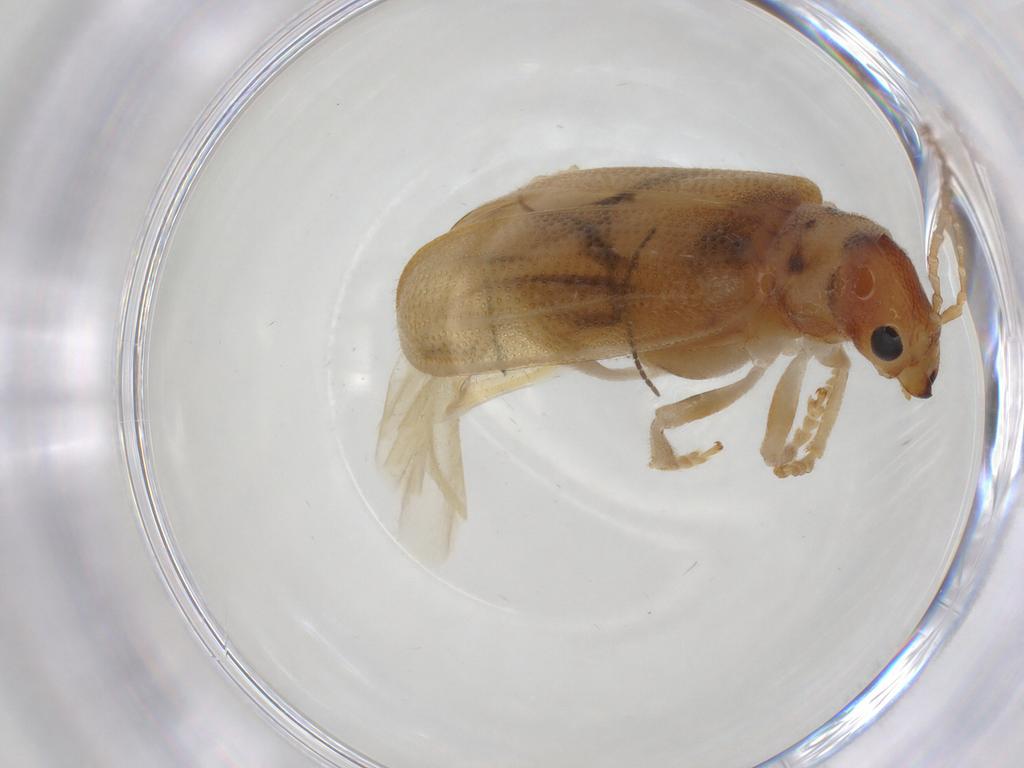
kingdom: Animalia
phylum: Arthropoda
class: Insecta
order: Coleoptera
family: Chrysomelidae
